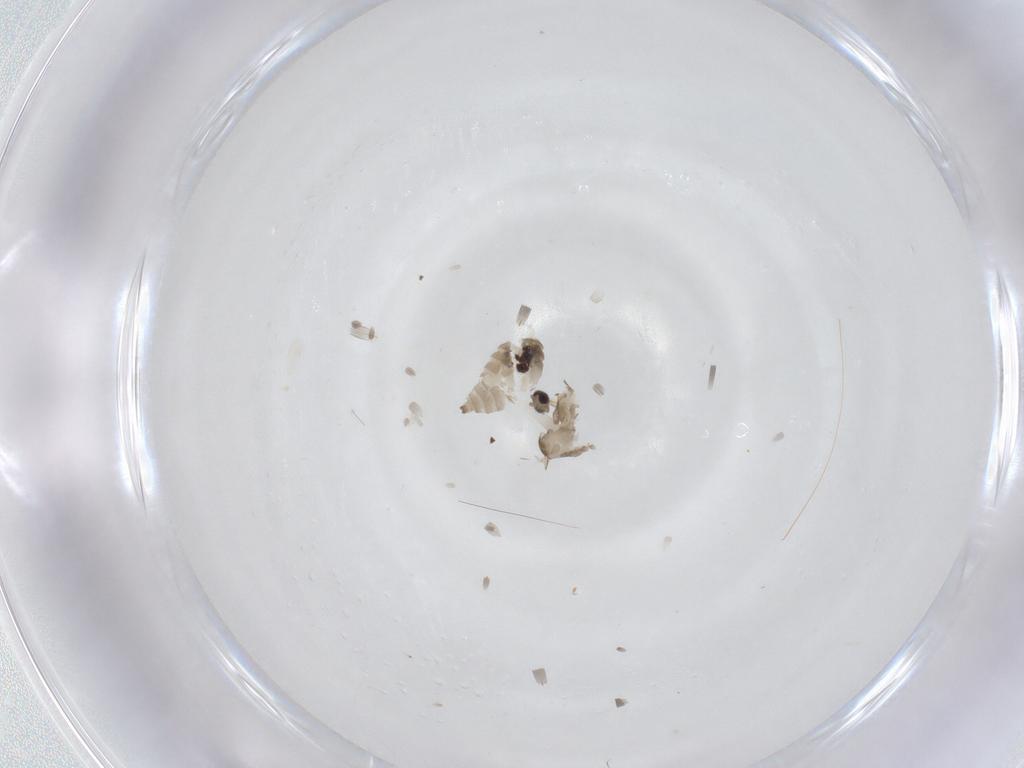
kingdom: Animalia
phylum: Arthropoda
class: Insecta
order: Diptera
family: Cecidomyiidae
